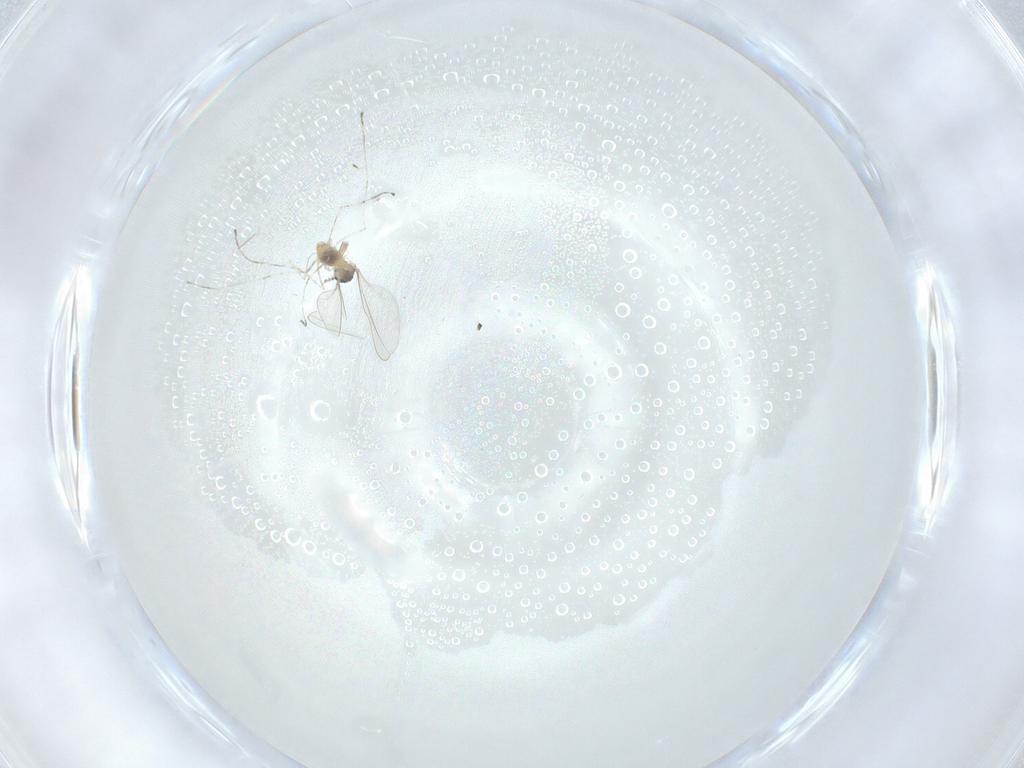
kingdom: Animalia
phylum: Arthropoda
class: Insecta
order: Diptera
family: Cecidomyiidae
